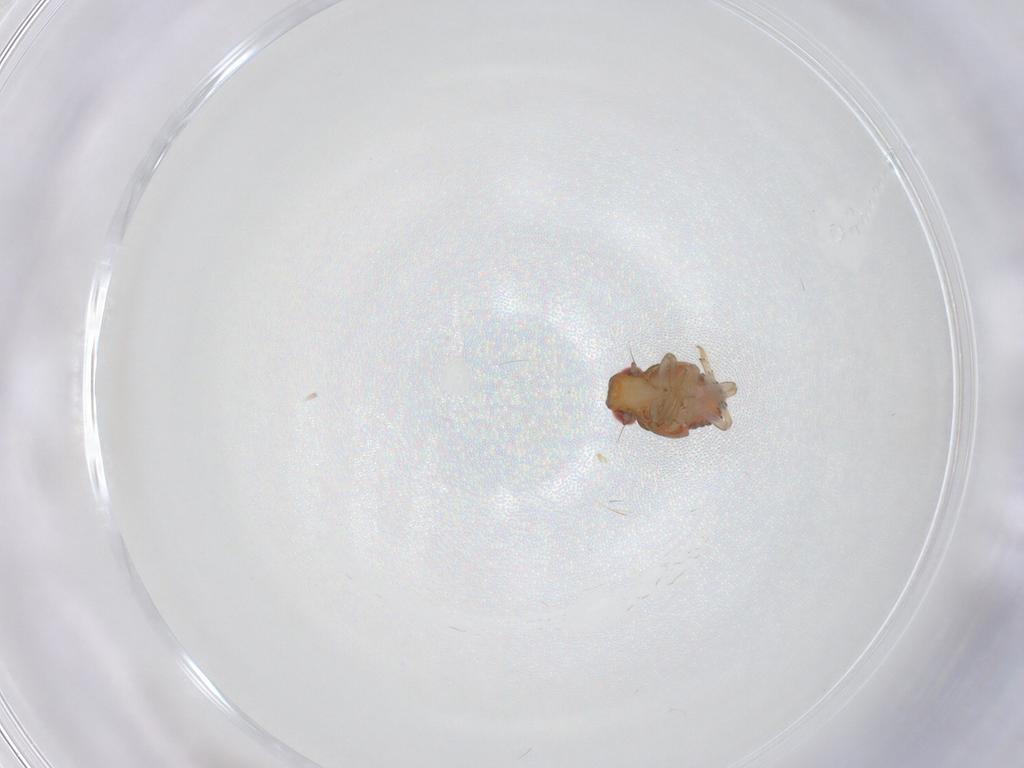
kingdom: Animalia
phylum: Arthropoda
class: Insecta
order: Hemiptera
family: Issidae
